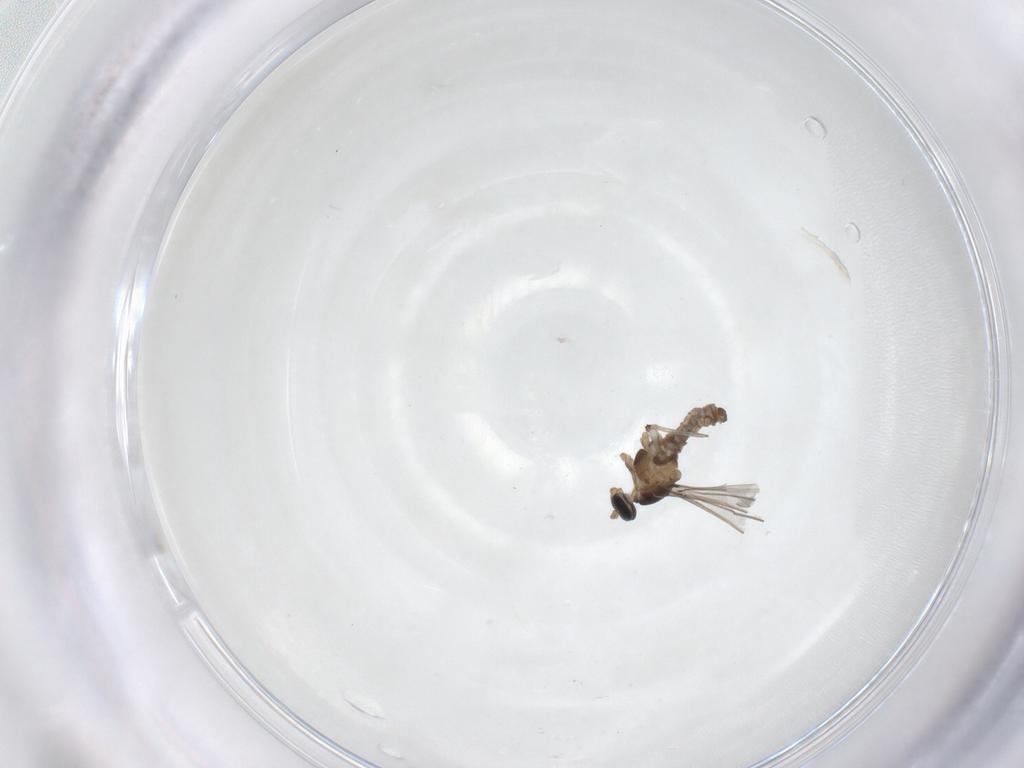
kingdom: Animalia
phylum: Arthropoda
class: Insecta
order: Diptera
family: Cecidomyiidae
